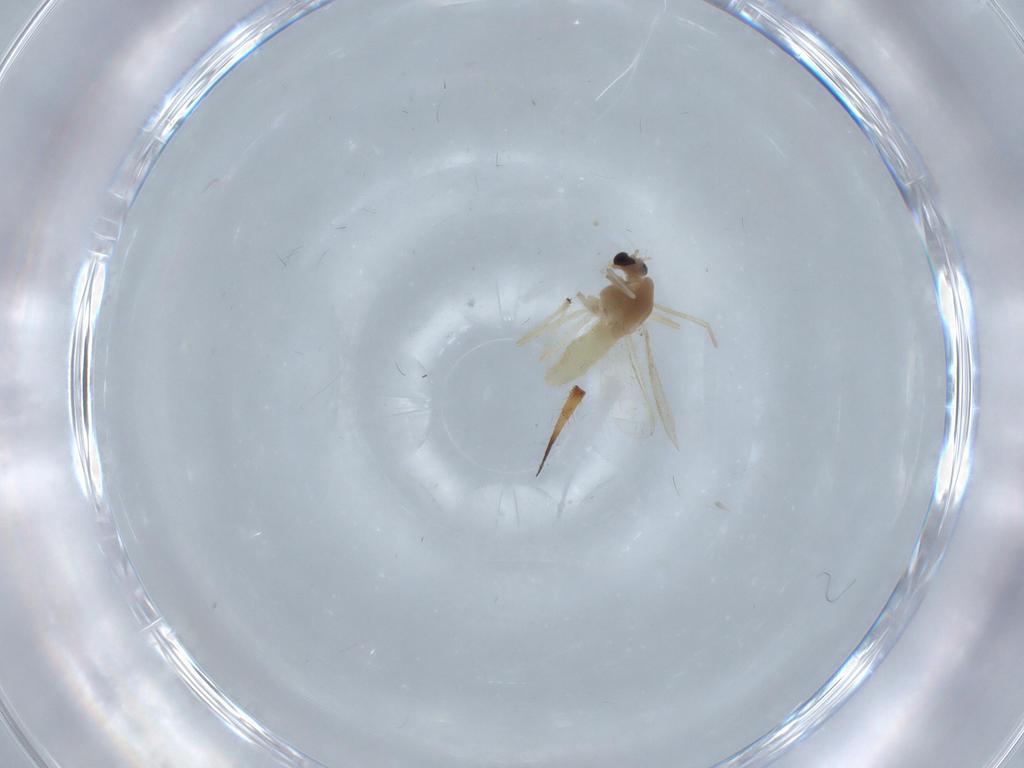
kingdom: Animalia
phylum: Arthropoda
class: Insecta
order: Diptera
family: Chironomidae
